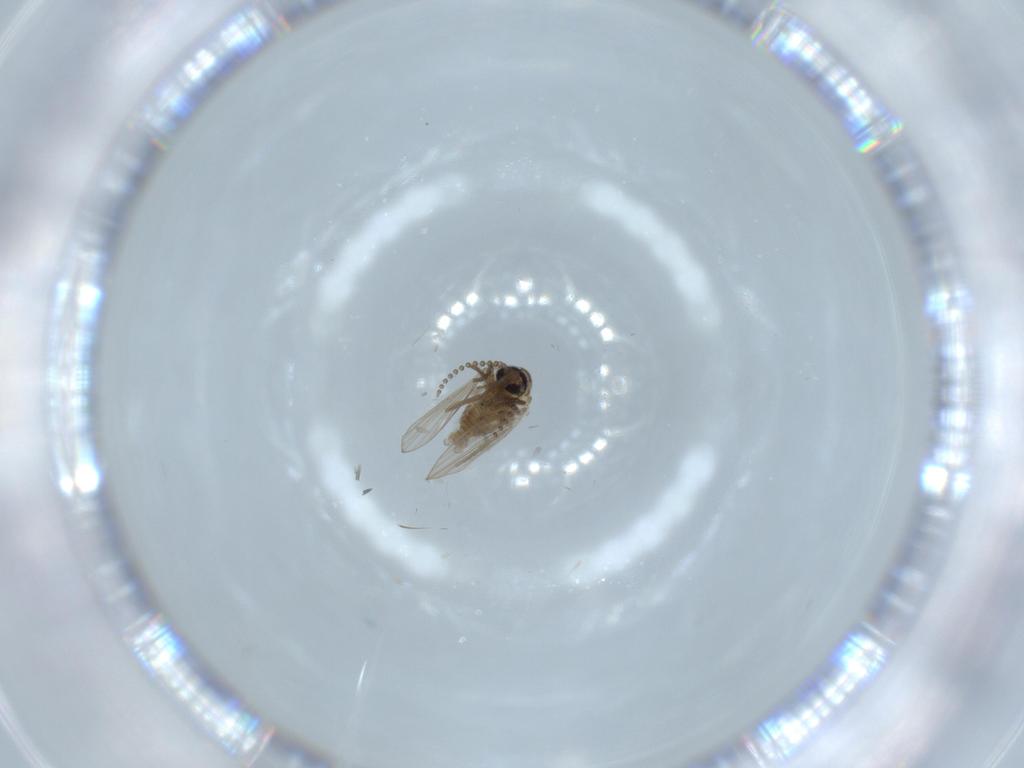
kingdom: Animalia
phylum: Arthropoda
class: Insecta
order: Diptera
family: Psychodidae
